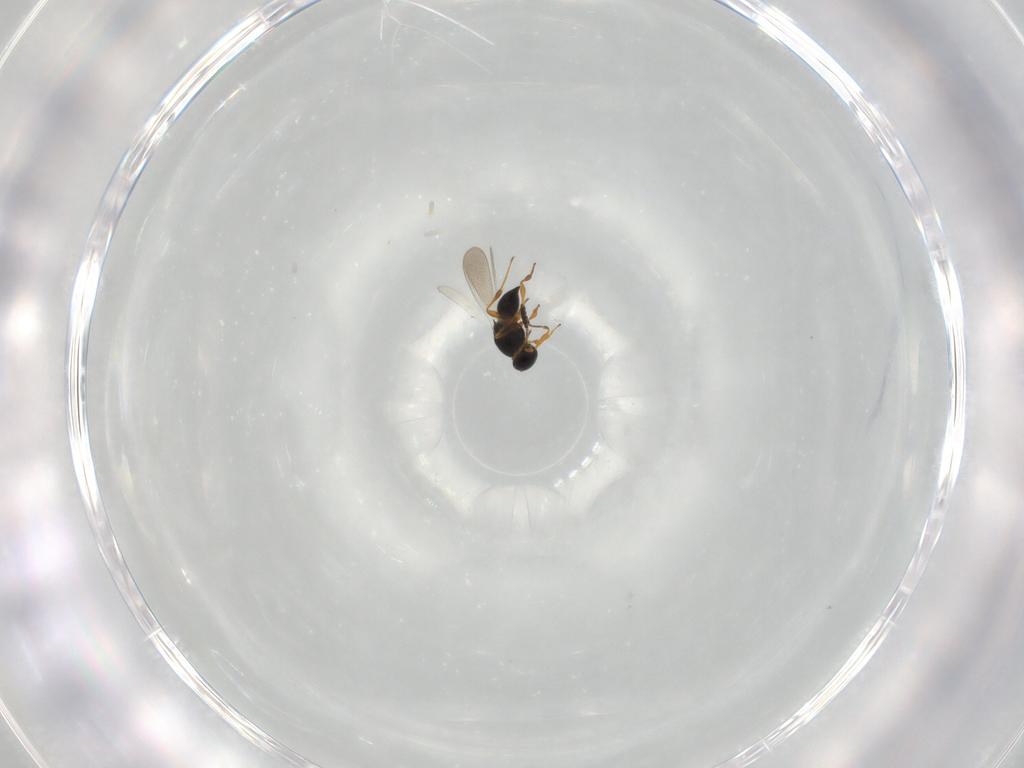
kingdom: Animalia
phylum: Arthropoda
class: Insecta
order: Hymenoptera
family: Platygastridae
